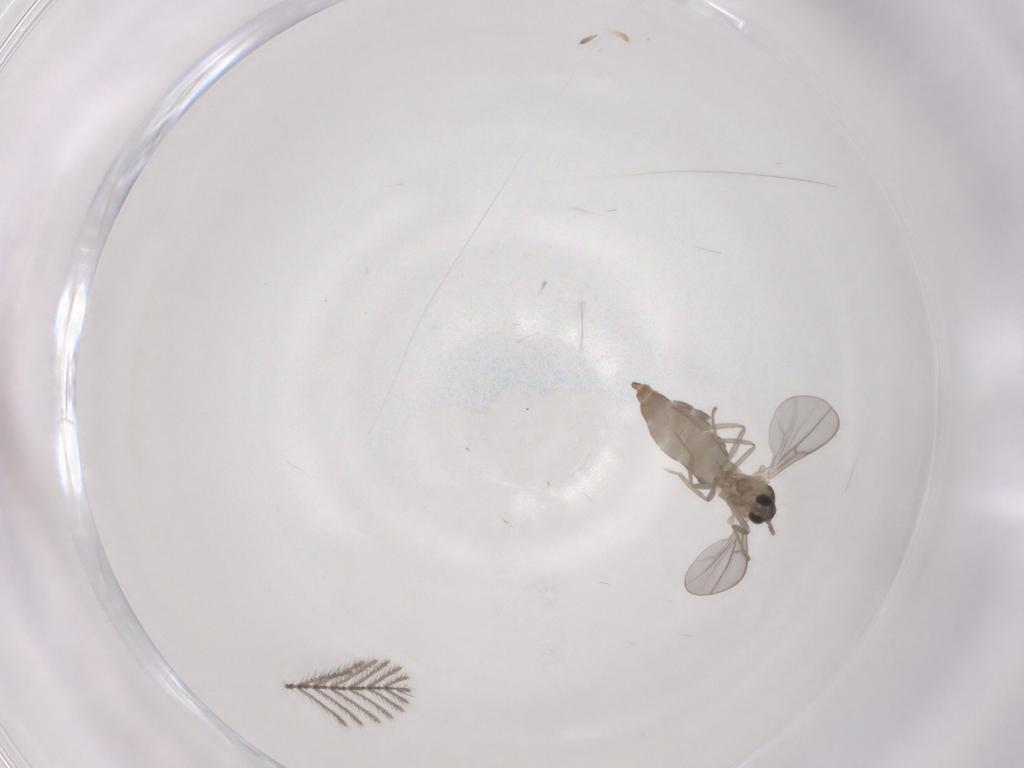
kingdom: Animalia
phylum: Arthropoda
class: Insecta
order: Diptera
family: Cecidomyiidae
